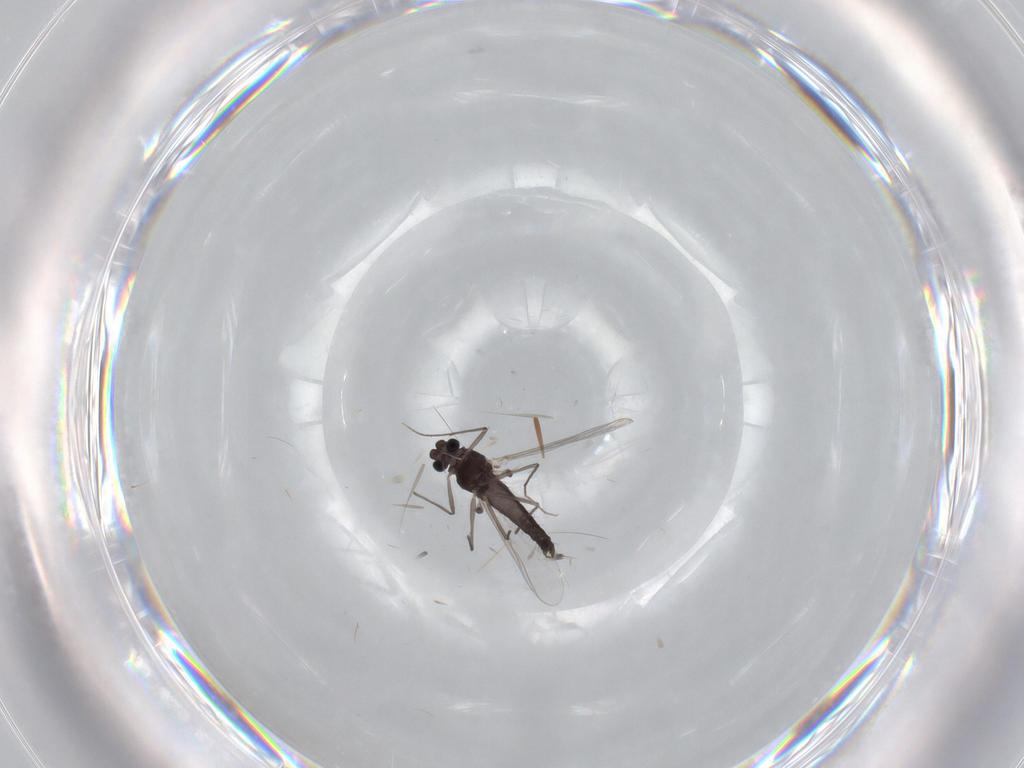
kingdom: Animalia
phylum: Arthropoda
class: Insecta
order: Diptera
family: Chironomidae
